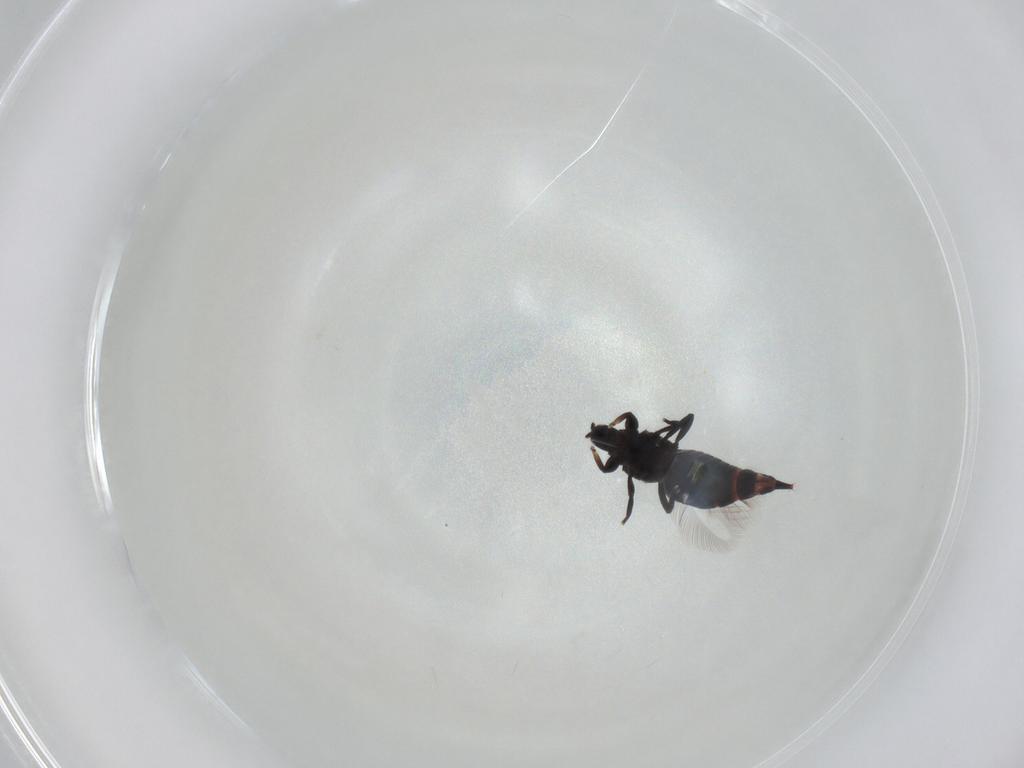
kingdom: Animalia
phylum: Arthropoda
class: Insecta
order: Thysanoptera
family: Phlaeothripidae
